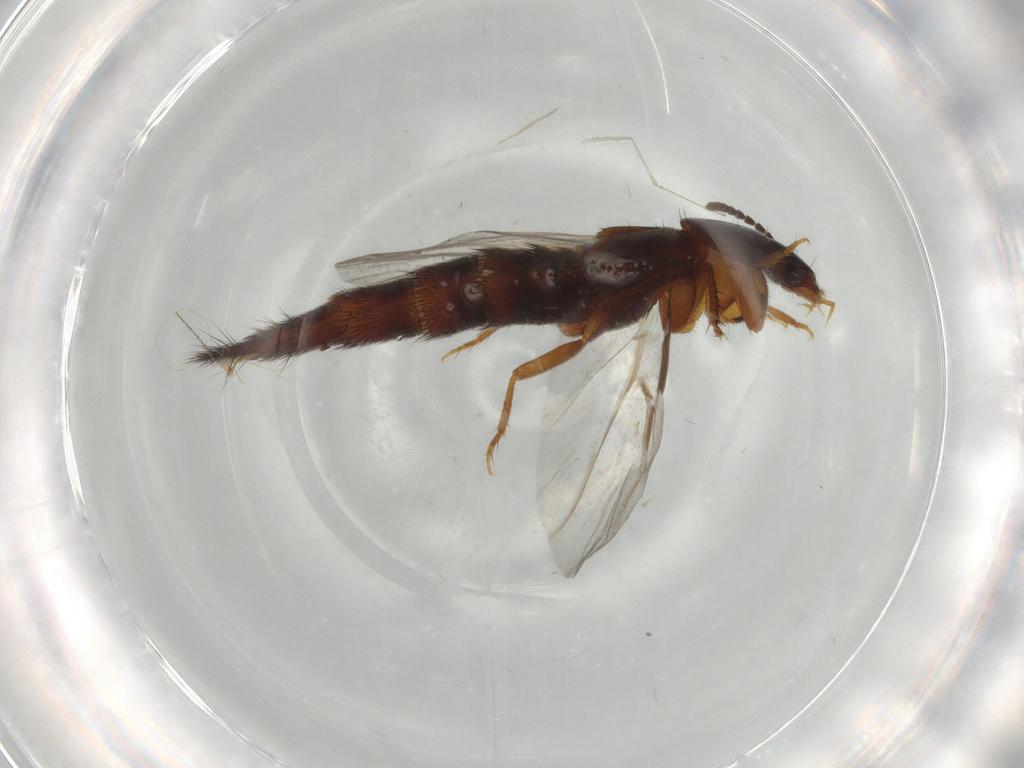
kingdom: Animalia
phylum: Arthropoda
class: Insecta
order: Coleoptera
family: Staphylinidae
